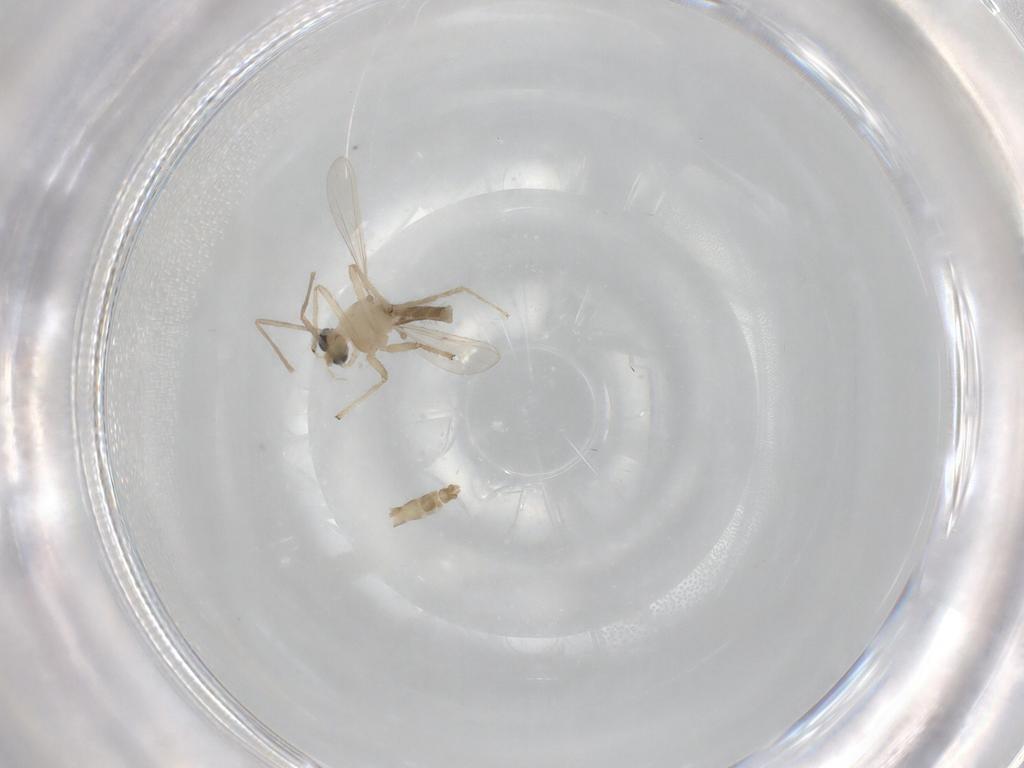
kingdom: Animalia
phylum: Arthropoda
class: Insecta
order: Diptera
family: Chironomidae
